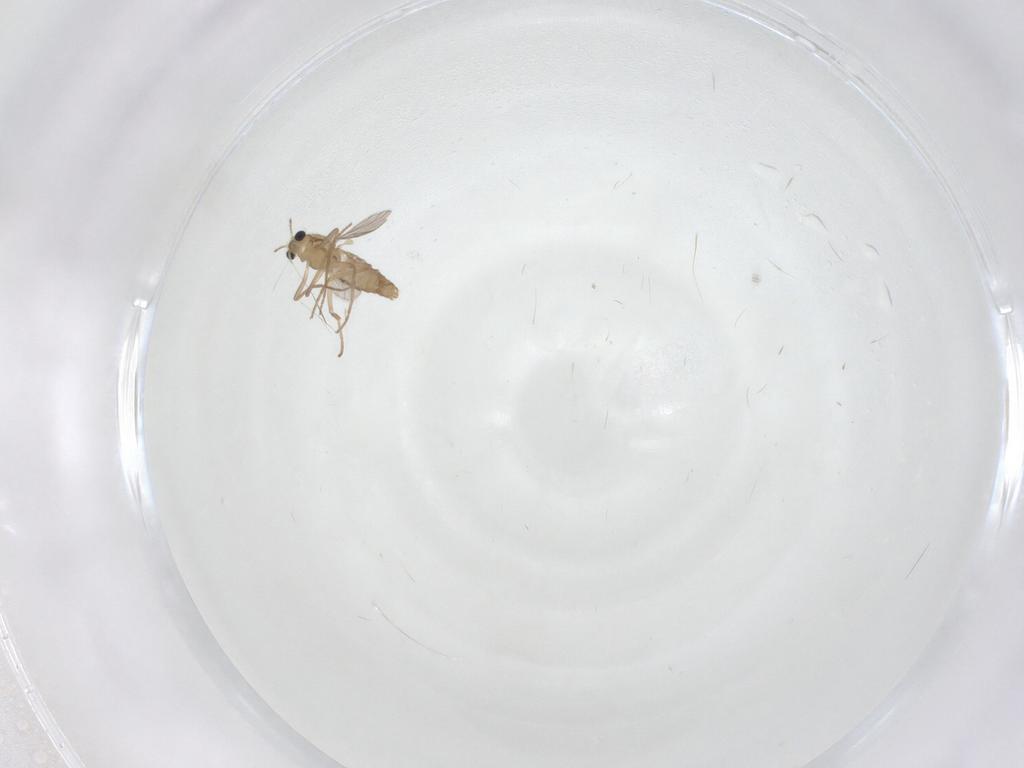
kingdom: Animalia
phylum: Arthropoda
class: Insecta
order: Diptera
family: Chironomidae
